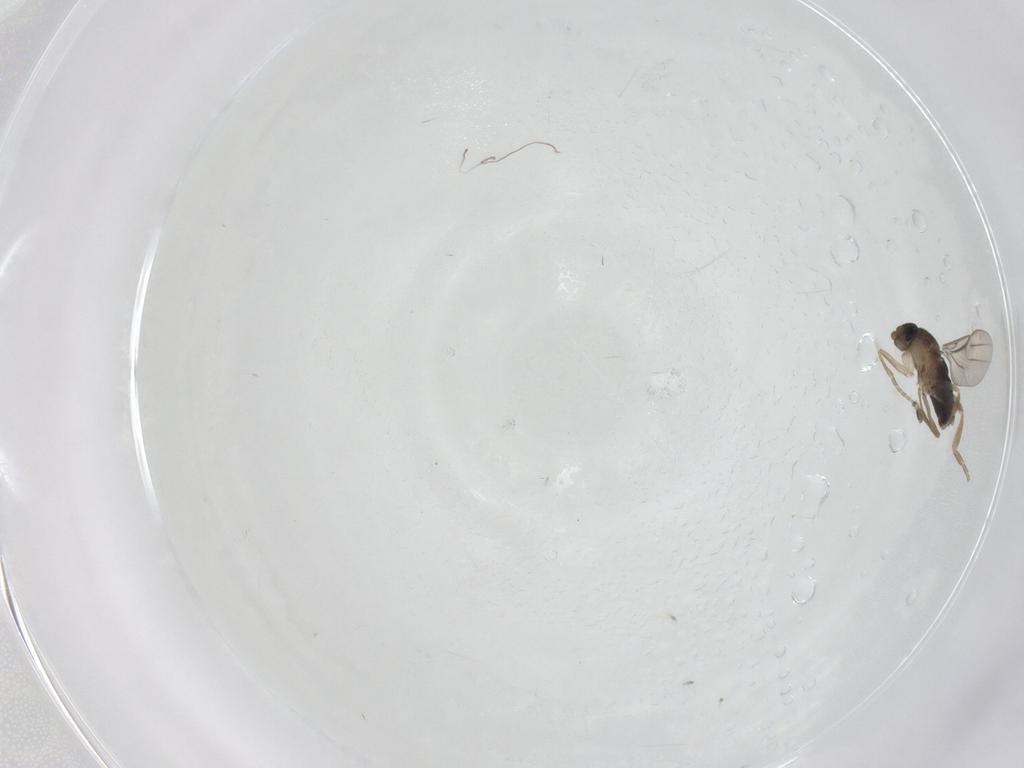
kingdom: Animalia
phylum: Arthropoda
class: Insecta
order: Diptera
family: Phoridae
